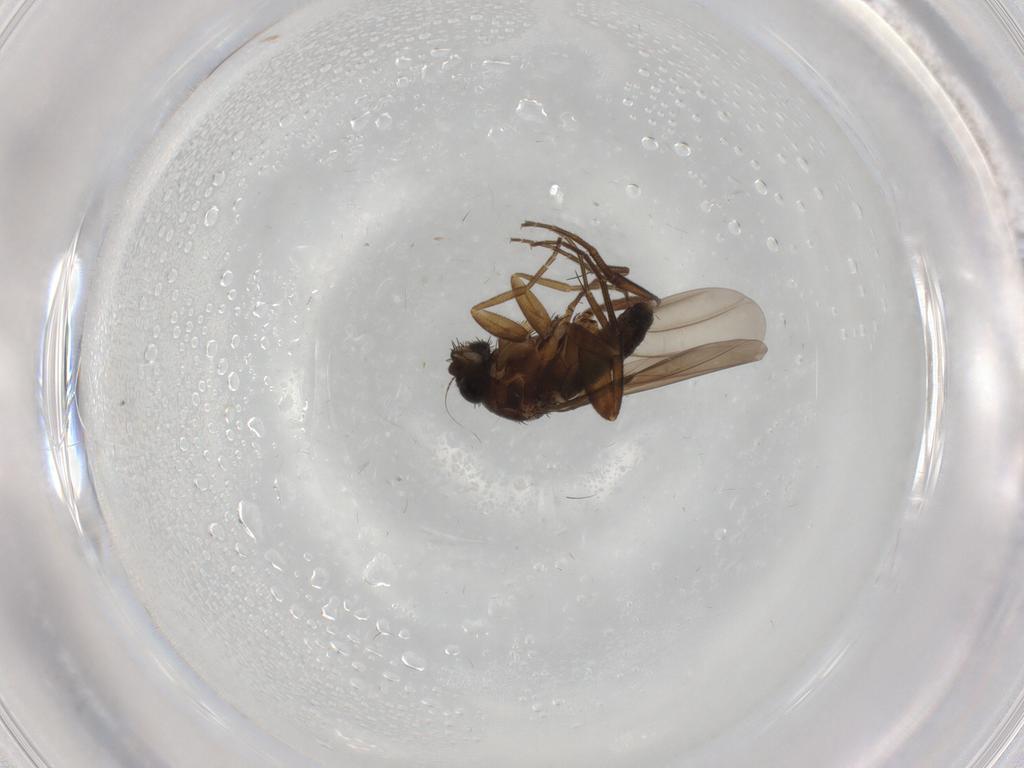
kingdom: Animalia
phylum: Arthropoda
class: Insecta
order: Diptera
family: Phoridae
